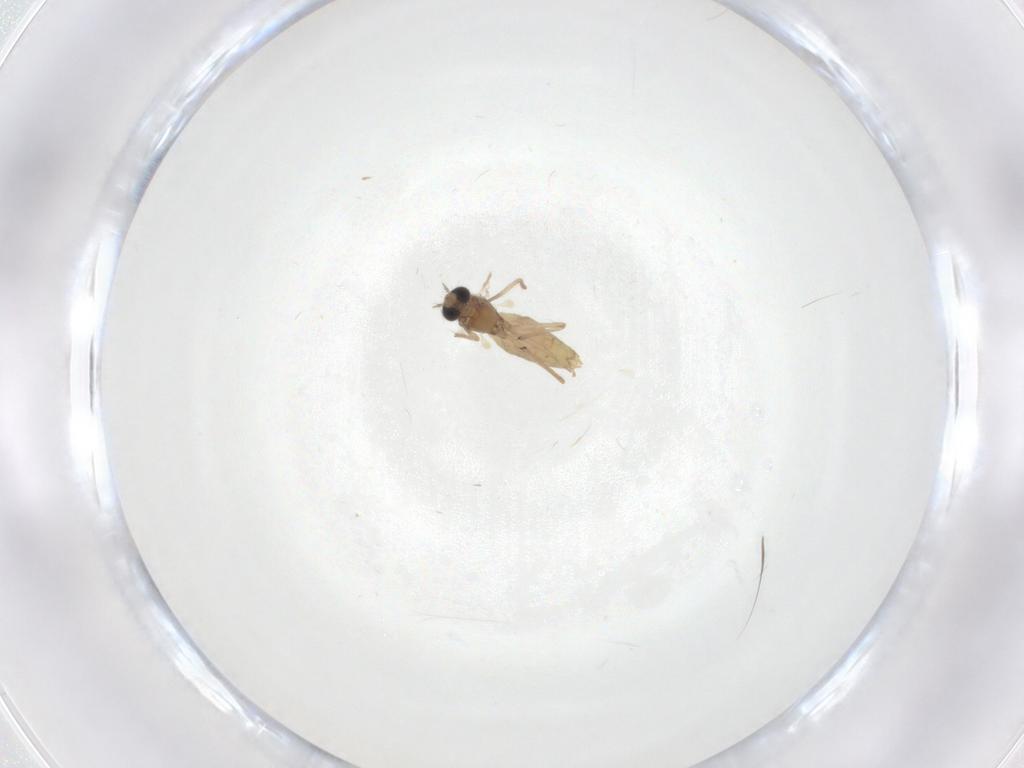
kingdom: Animalia
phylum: Arthropoda
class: Insecta
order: Diptera
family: Chironomidae
